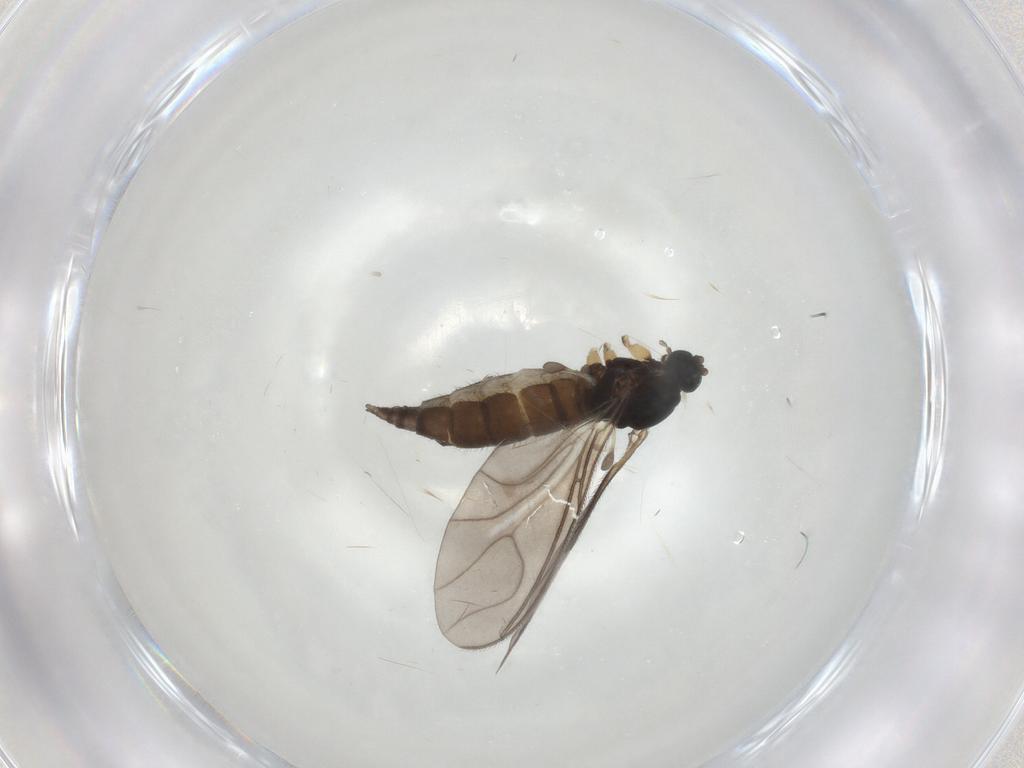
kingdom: Animalia
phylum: Arthropoda
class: Insecta
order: Diptera
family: Sciaridae
